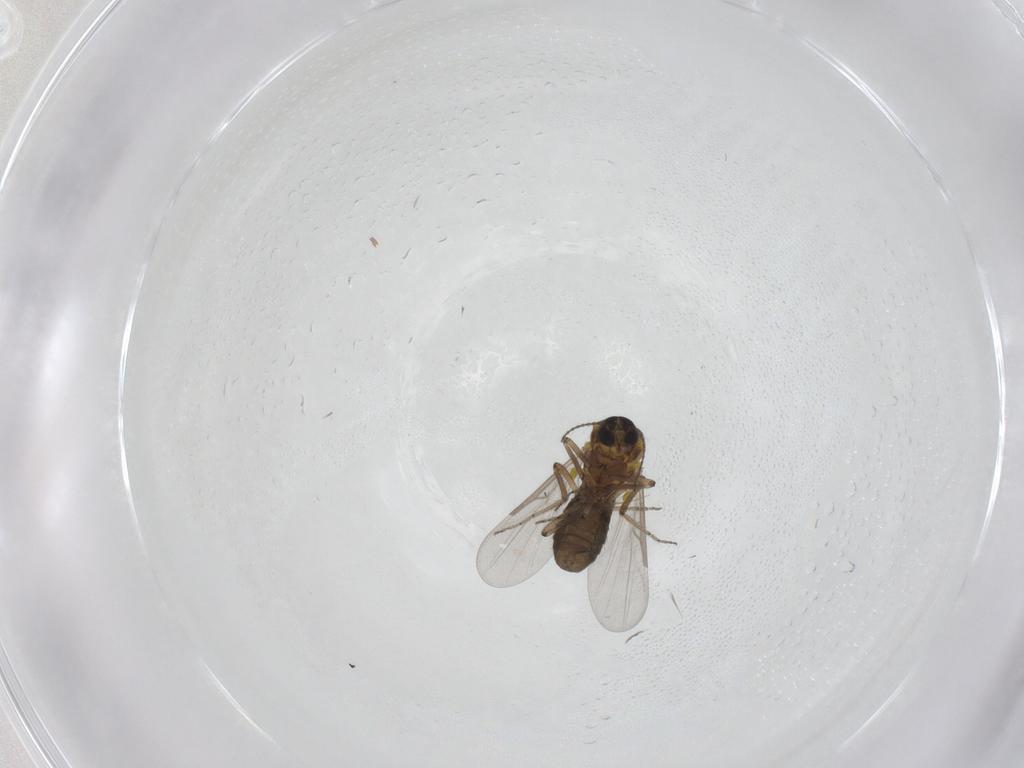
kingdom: Animalia
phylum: Arthropoda
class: Insecta
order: Diptera
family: Ceratopogonidae
